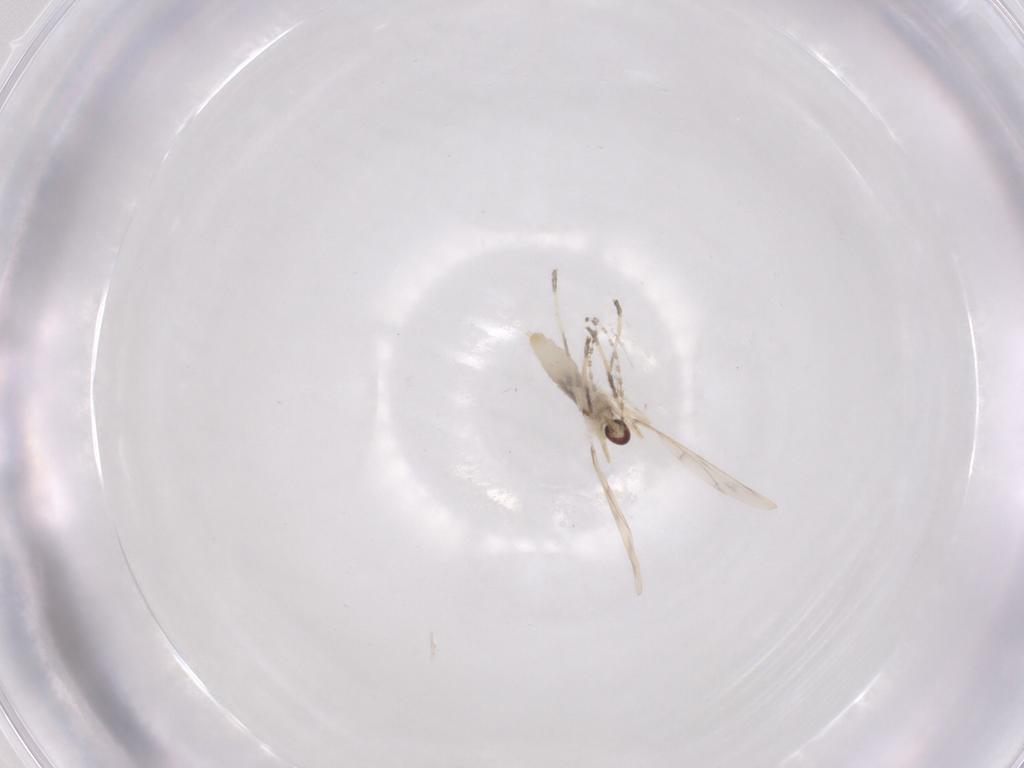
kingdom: Animalia
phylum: Arthropoda
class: Insecta
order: Diptera
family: Cecidomyiidae
